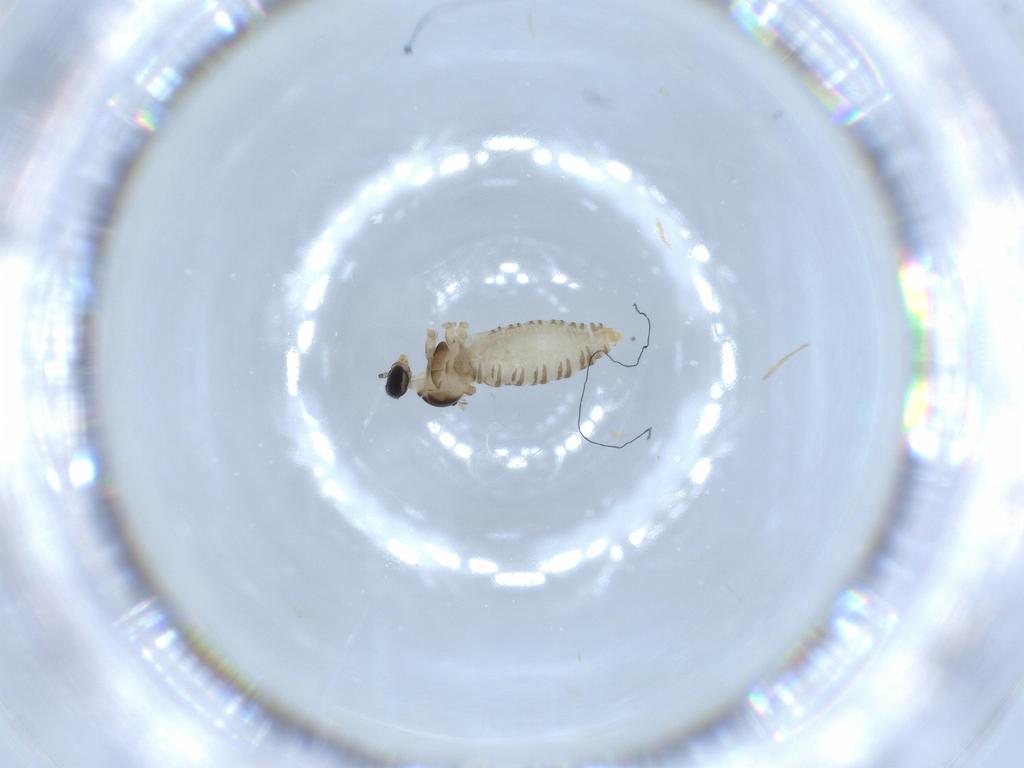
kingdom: Animalia
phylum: Arthropoda
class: Insecta
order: Diptera
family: Cecidomyiidae
